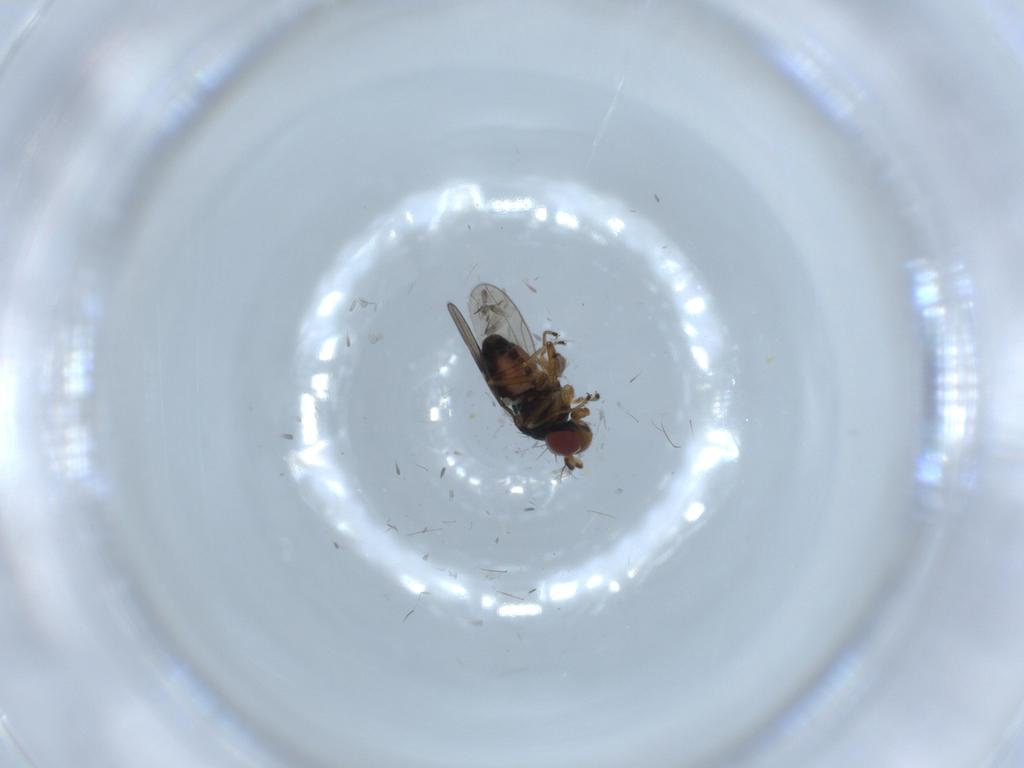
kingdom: Animalia
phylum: Arthropoda
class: Insecta
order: Diptera
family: Ephydridae
